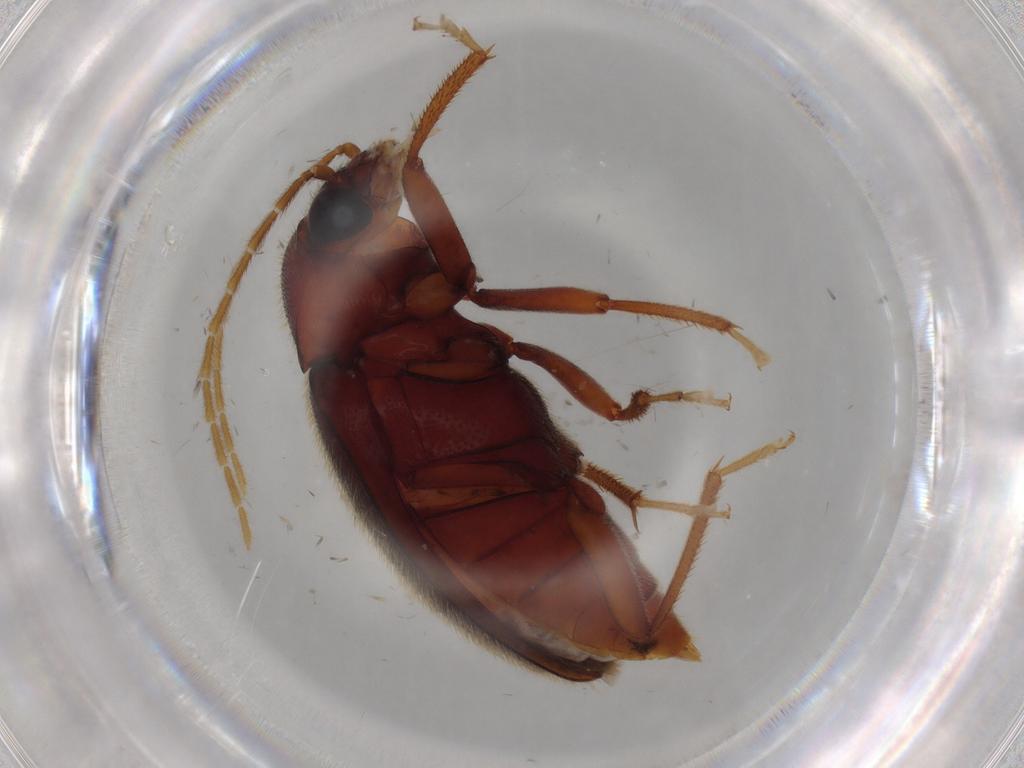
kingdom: Animalia
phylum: Arthropoda
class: Insecta
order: Coleoptera
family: Ptilodactylidae
